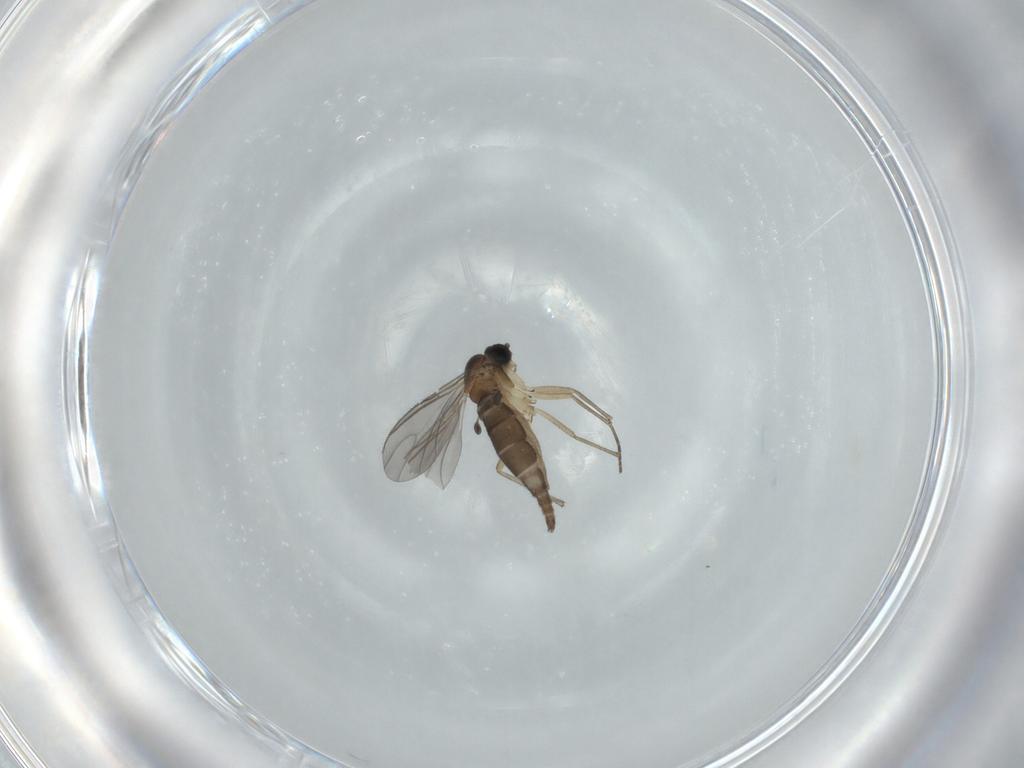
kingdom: Animalia
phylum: Arthropoda
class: Insecta
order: Diptera
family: Sciaridae
